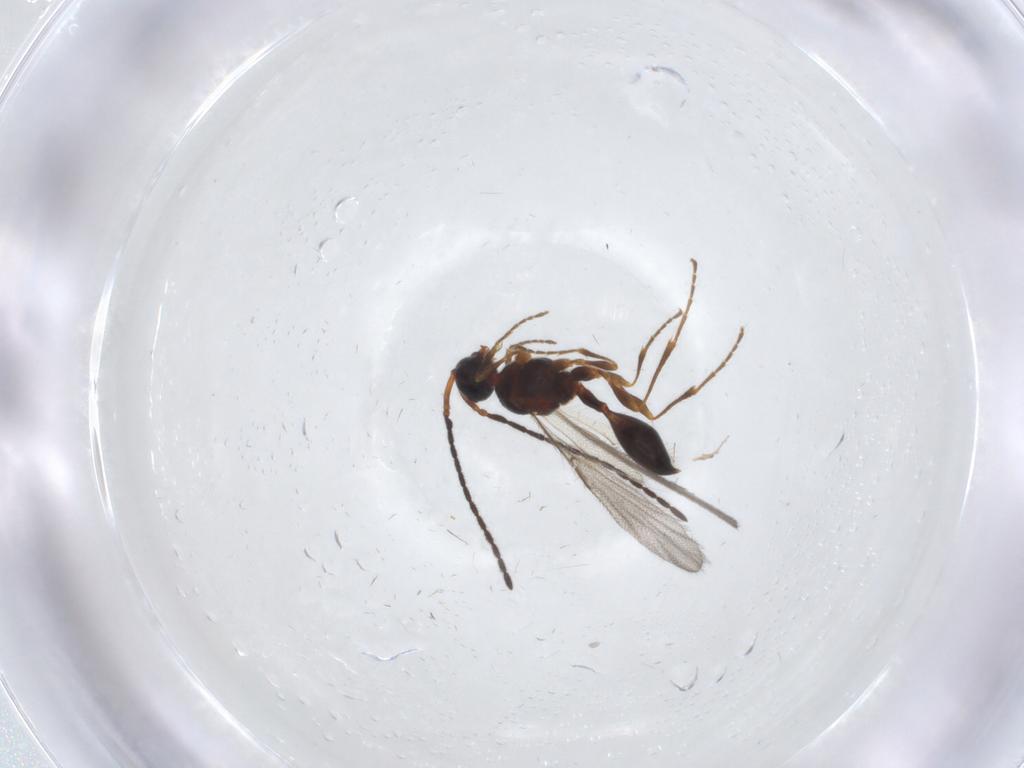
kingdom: Animalia
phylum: Arthropoda
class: Insecta
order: Hymenoptera
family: Diapriidae
